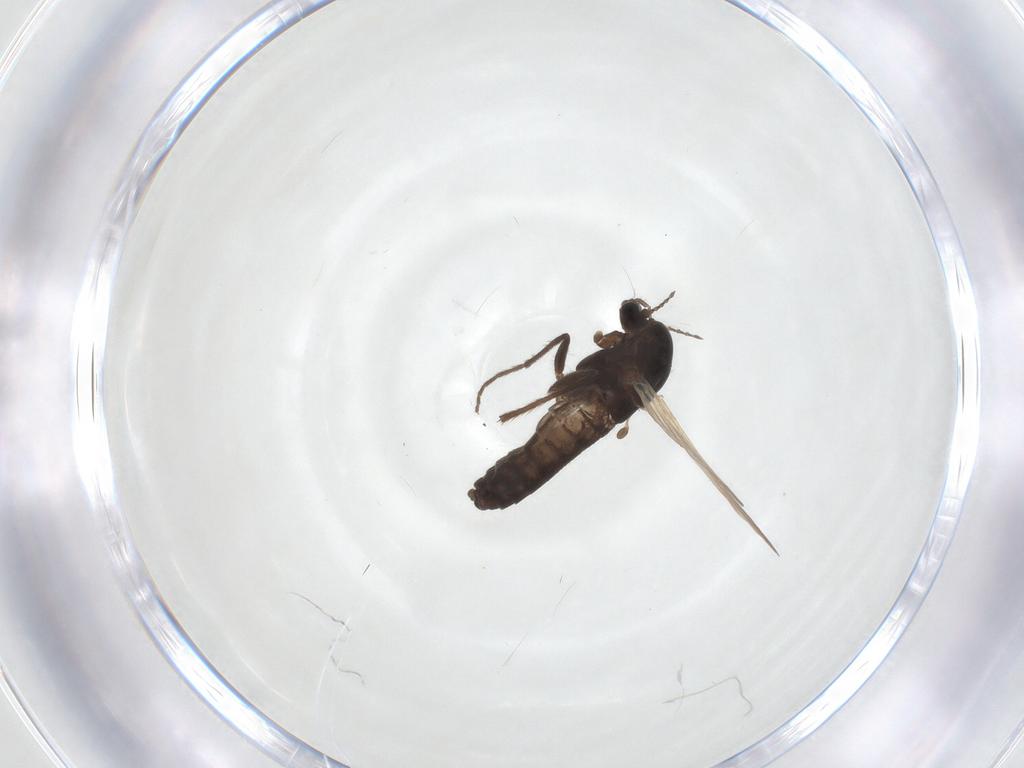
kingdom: Animalia
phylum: Arthropoda
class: Insecta
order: Diptera
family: Chironomidae
